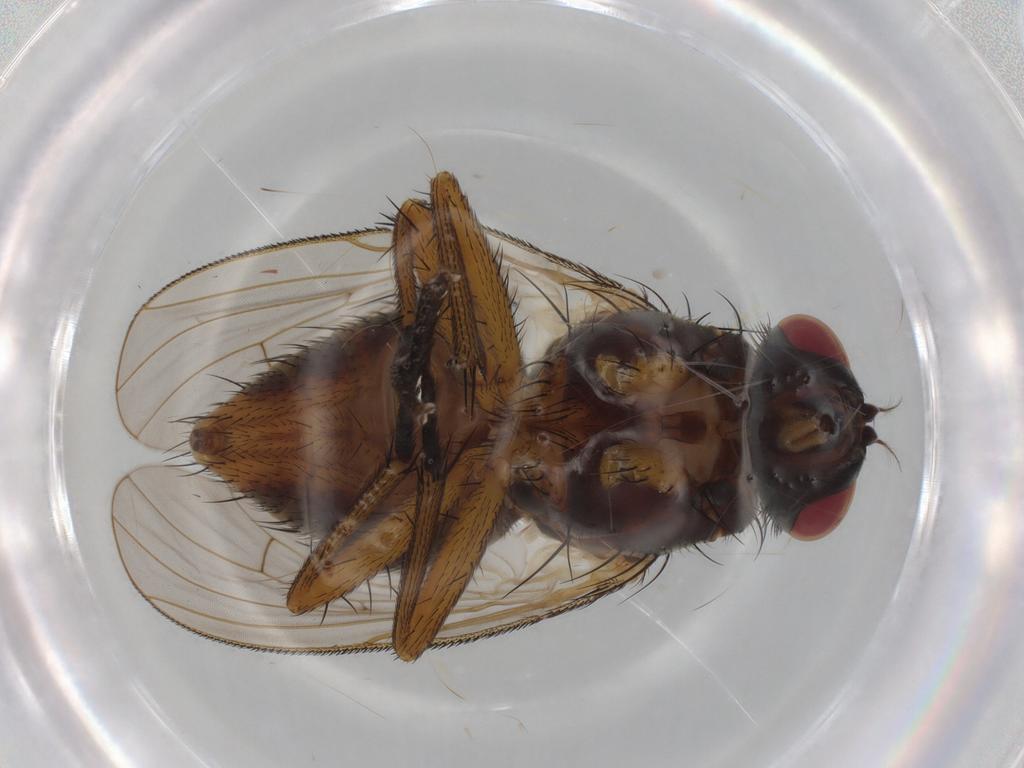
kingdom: Animalia
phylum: Arthropoda
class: Insecta
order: Diptera
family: Muscidae
